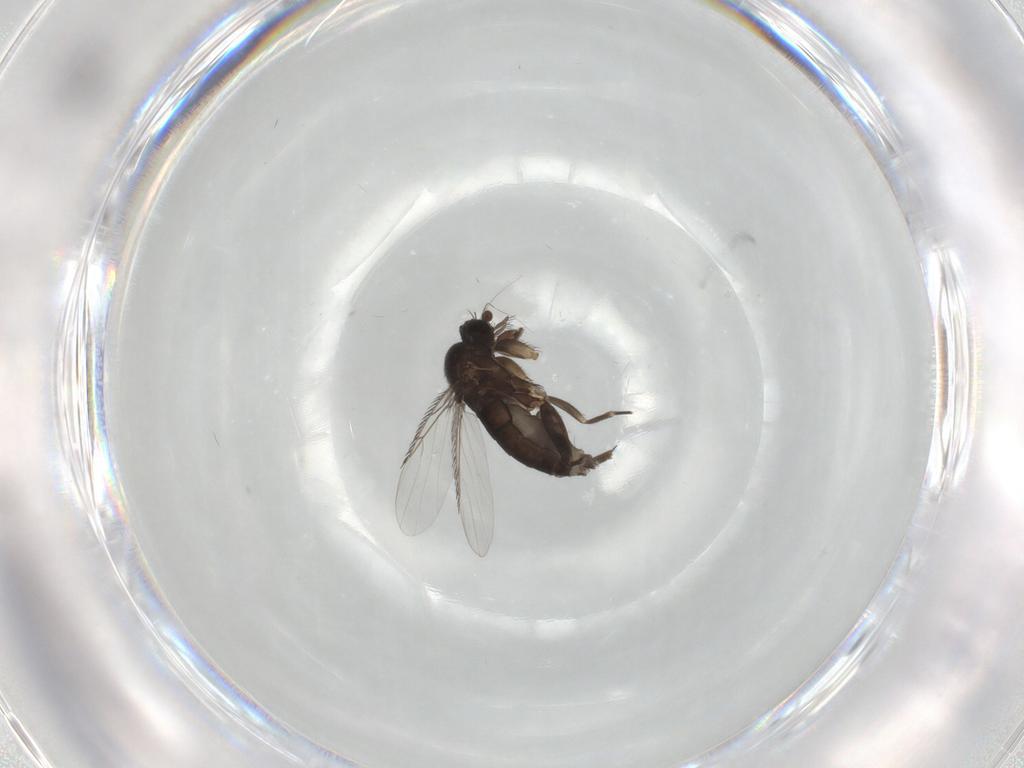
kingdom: Animalia
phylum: Arthropoda
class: Insecta
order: Diptera
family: Phoridae
